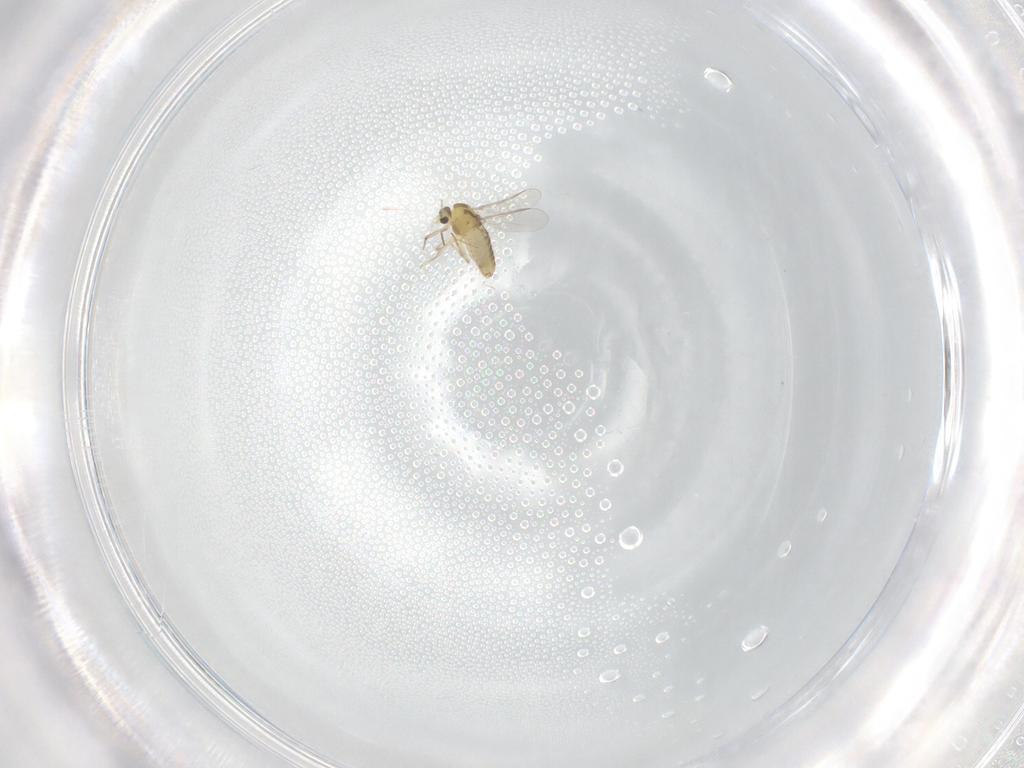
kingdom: Animalia
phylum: Arthropoda
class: Insecta
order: Diptera
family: Chironomidae
